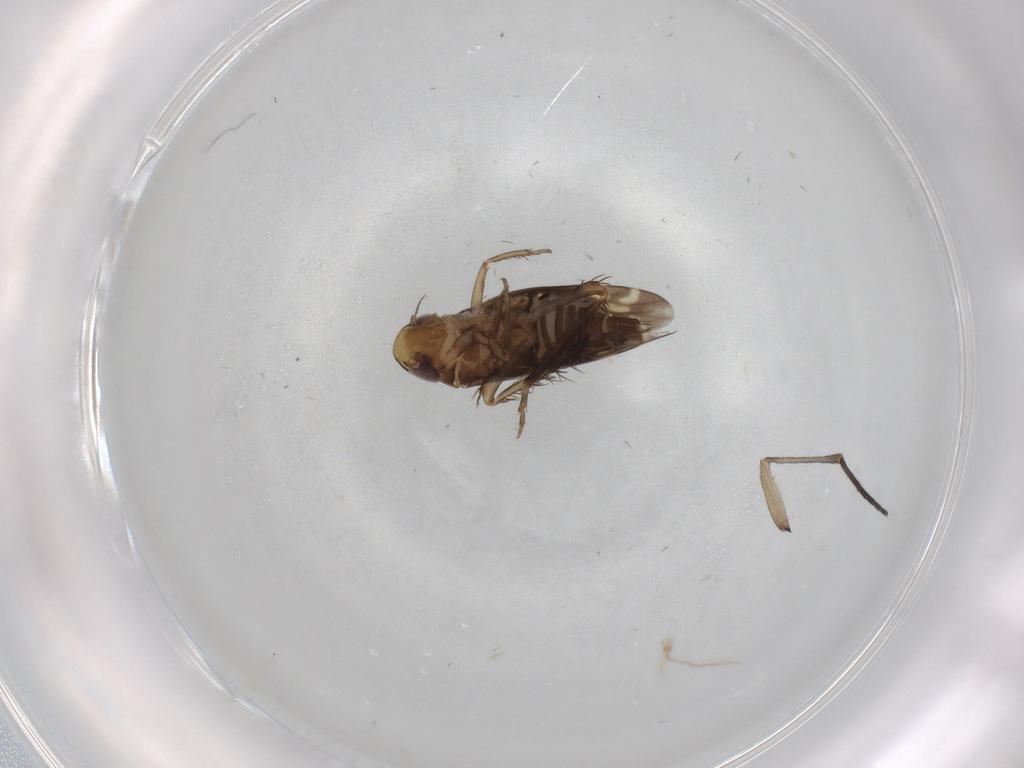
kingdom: Animalia
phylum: Arthropoda
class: Insecta
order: Hemiptera
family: Cicadellidae
